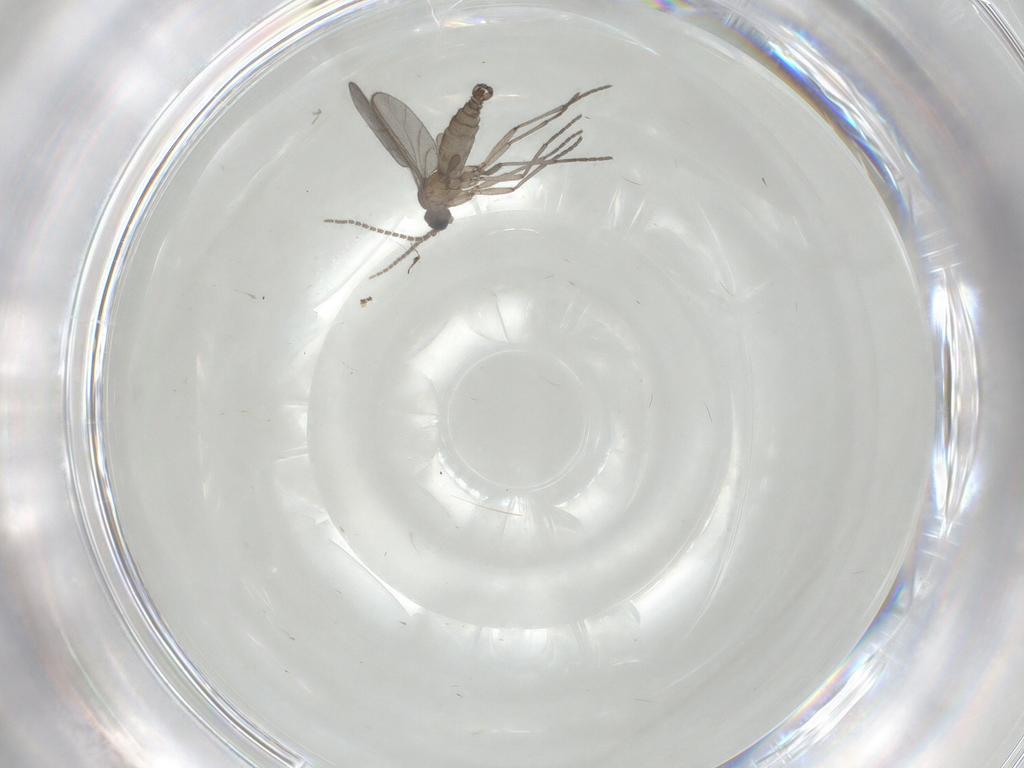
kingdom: Animalia
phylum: Arthropoda
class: Insecta
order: Diptera
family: Sciaridae
